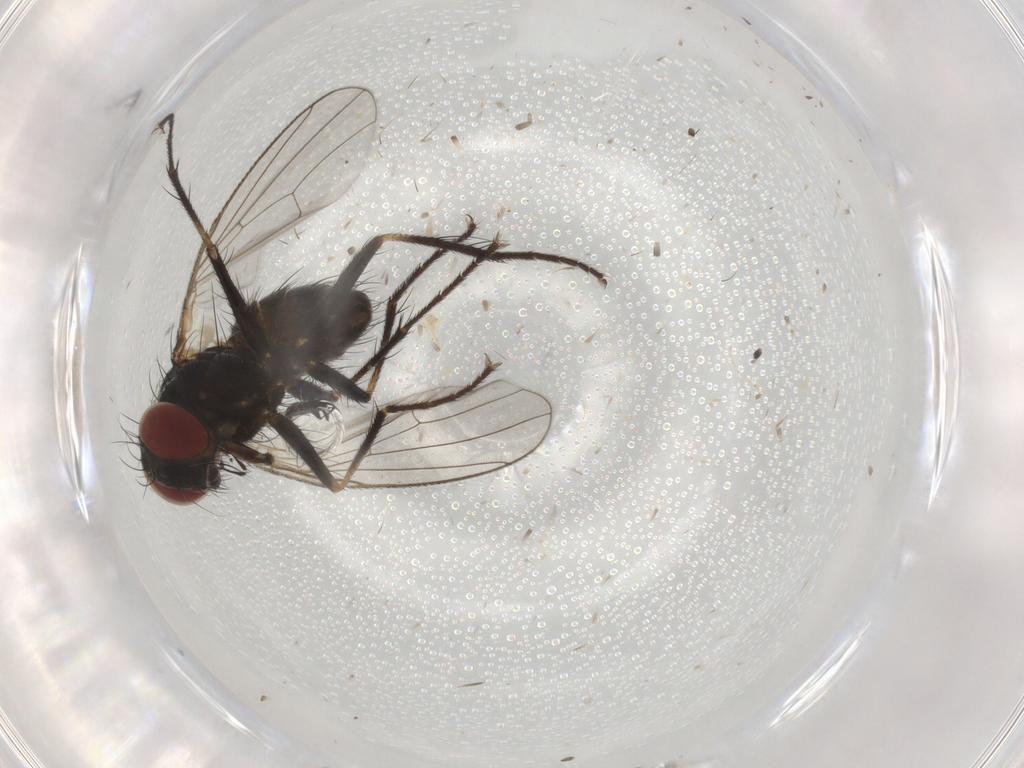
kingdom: Animalia
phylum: Arthropoda
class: Insecta
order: Diptera
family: Muscidae
